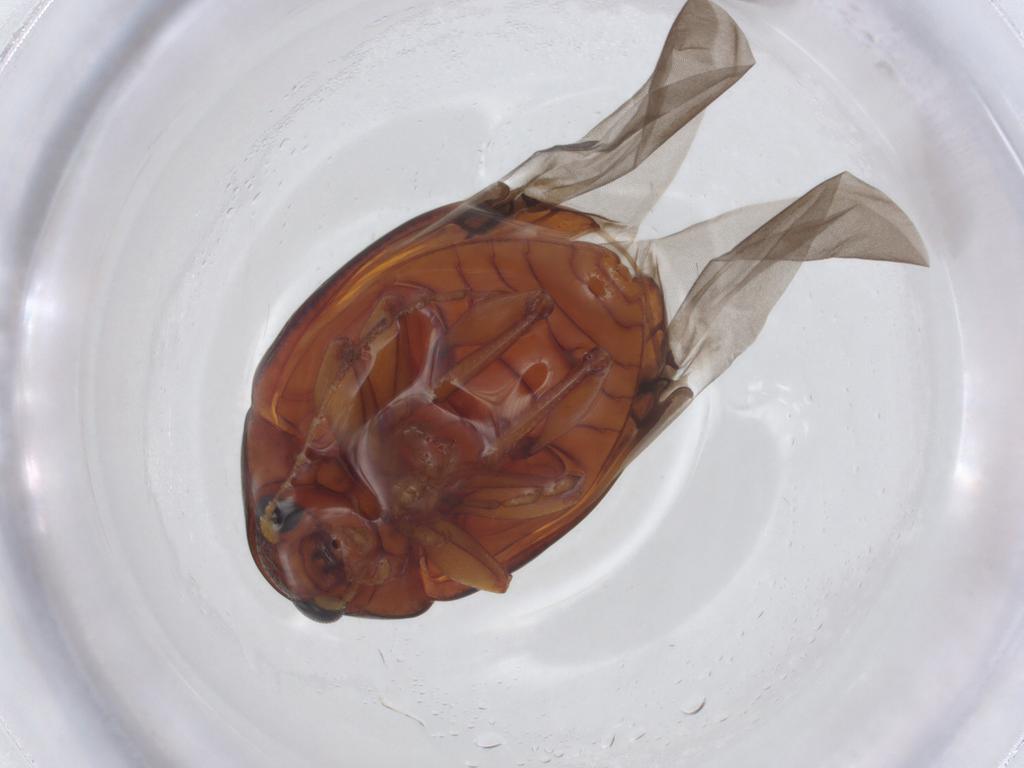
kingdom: Animalia
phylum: Arthropoda
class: Insecta
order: Coleoptera
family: Chrysomelidae
